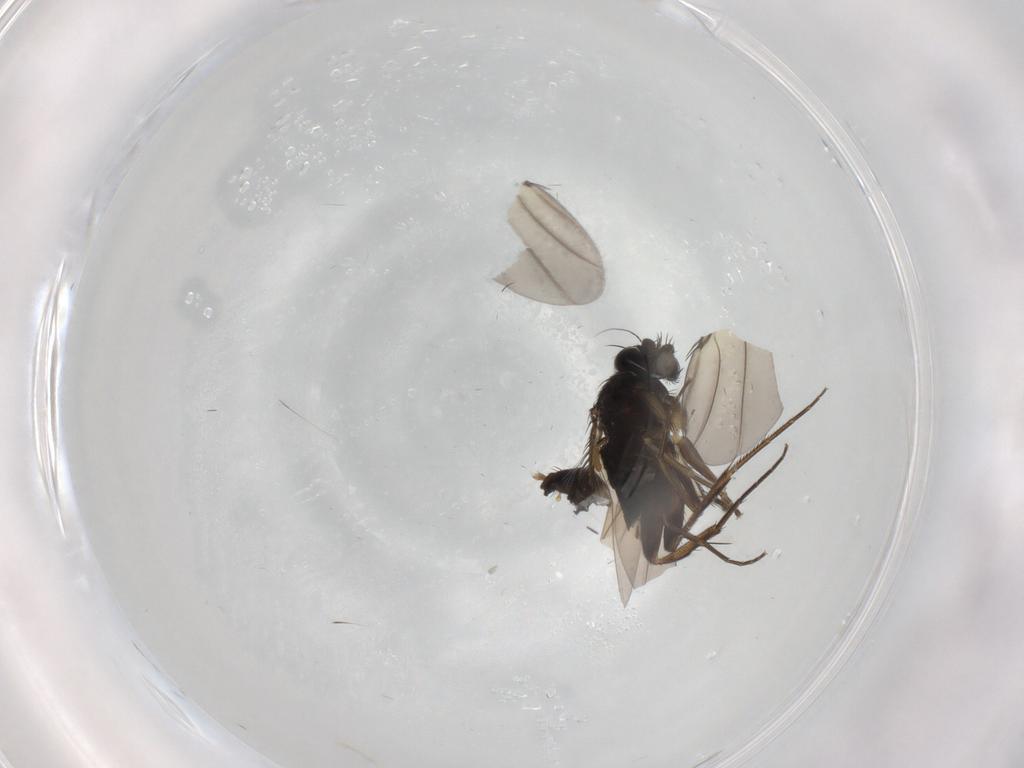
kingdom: Animalia
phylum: Arthropoda
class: Insecta
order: Diptera
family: Phoridae
